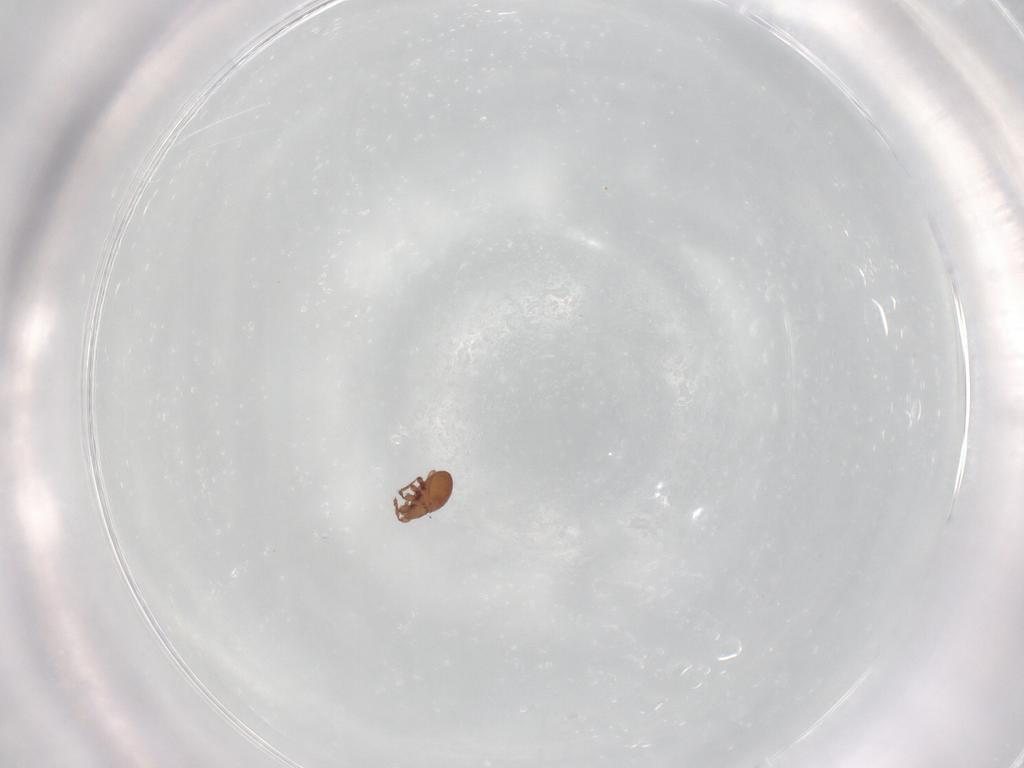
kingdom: Animalia
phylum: Arthropoda
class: Arachnida
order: Sarcoptiformes
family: Eremaeidae
